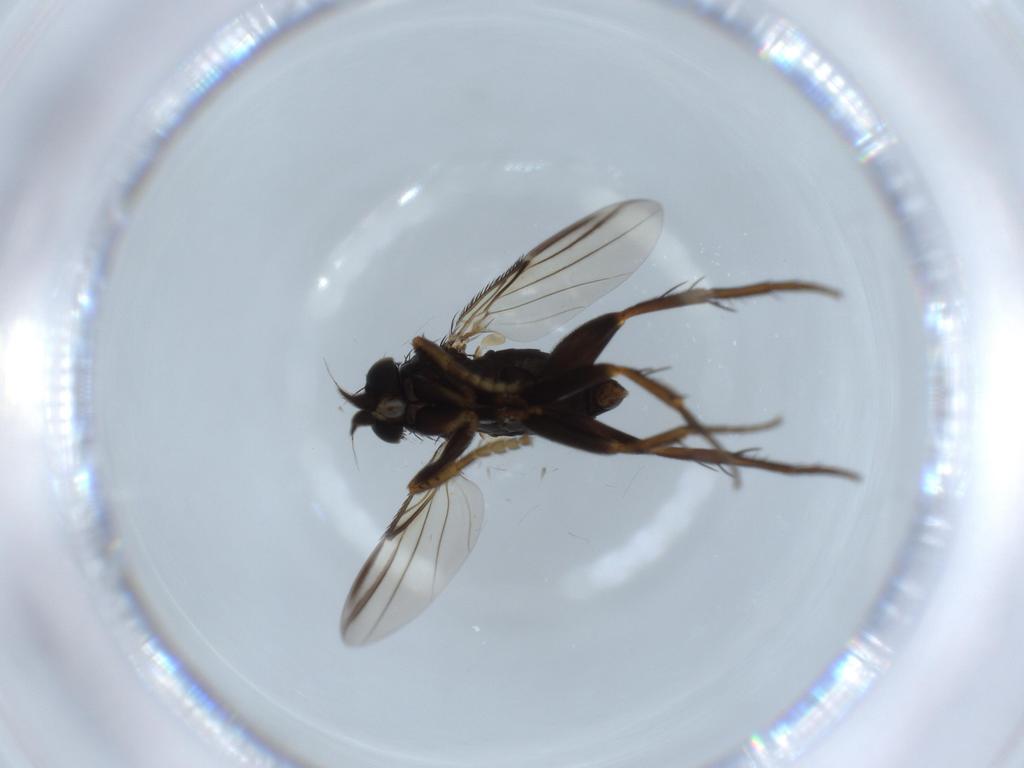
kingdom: Animalia
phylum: Arthropoda
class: Insecta
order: Diptera
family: Phoridae
